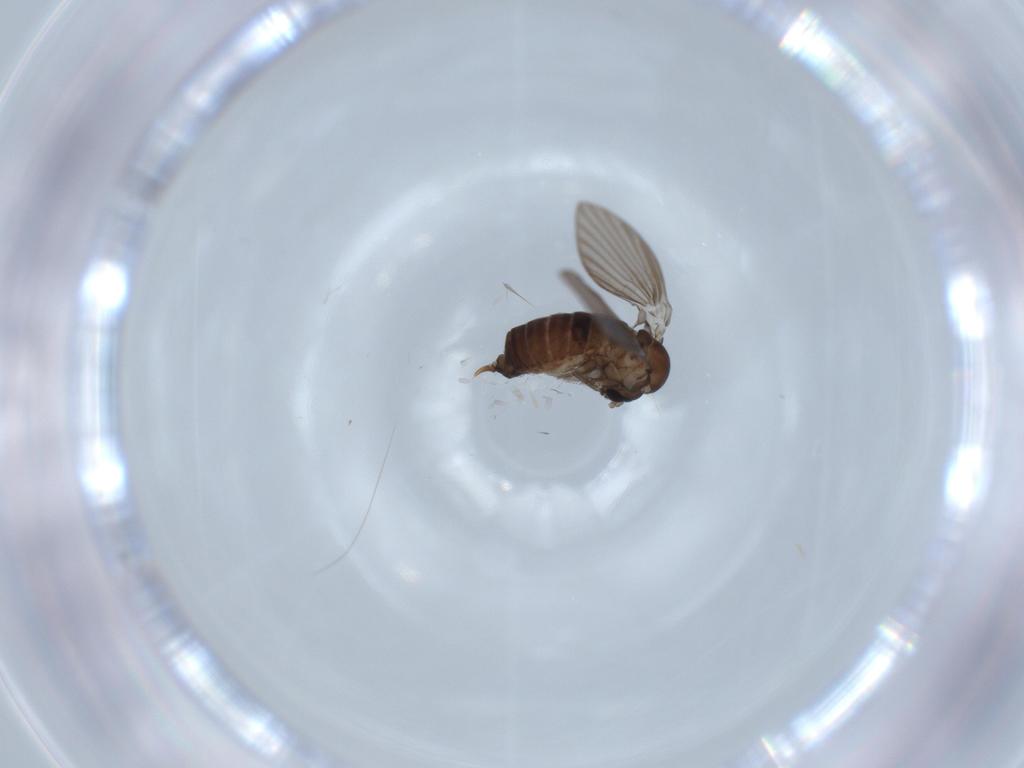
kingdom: Animalia
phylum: Arthropoda
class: Insecta
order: Diptera
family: Psychodidae
